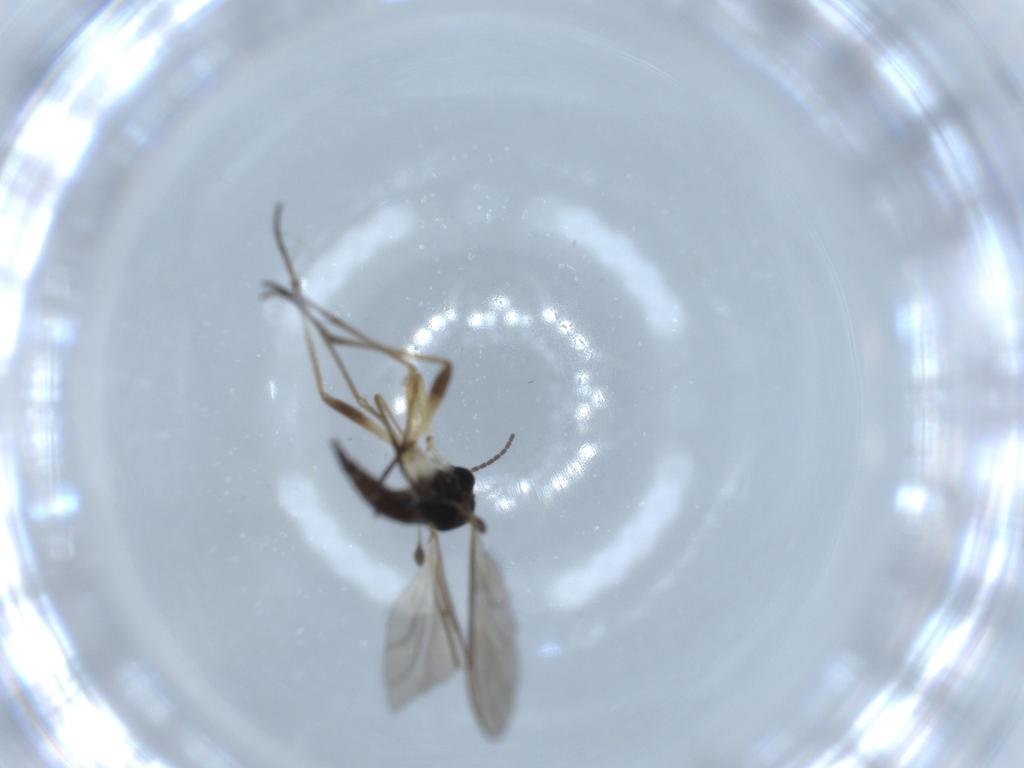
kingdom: Animalia
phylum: Arthropoda
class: Insecta
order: Diptera
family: Sciaridae
